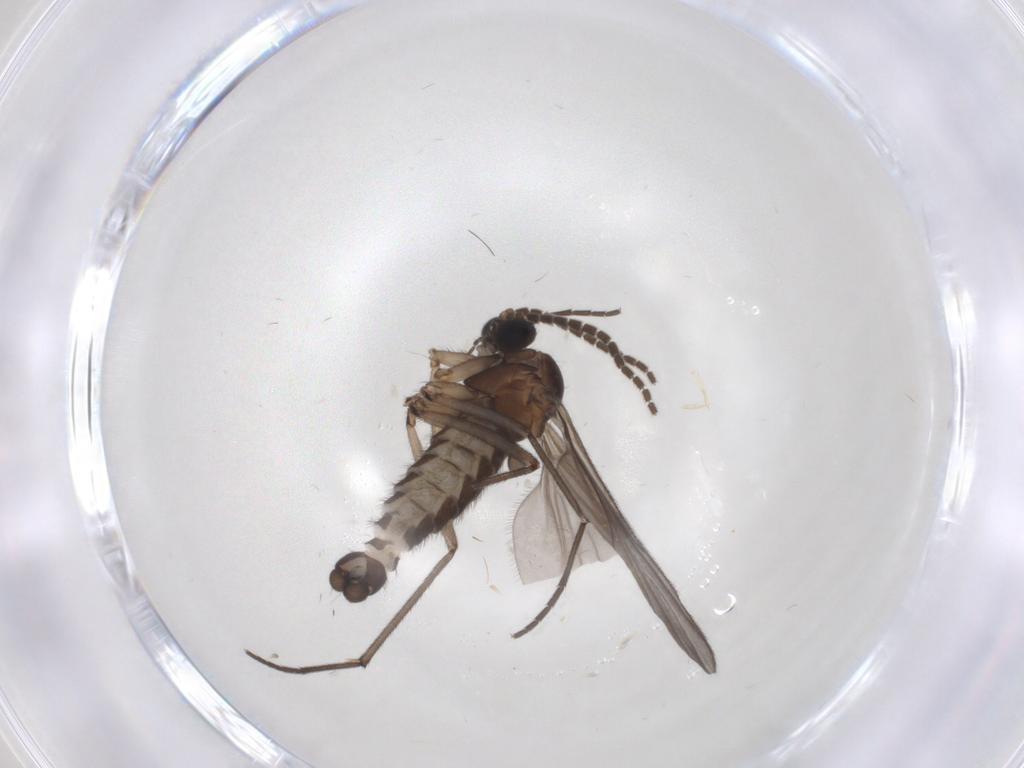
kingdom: Animalia
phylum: Arthropoda
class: Insecta
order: Diptera
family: Sciaridae
